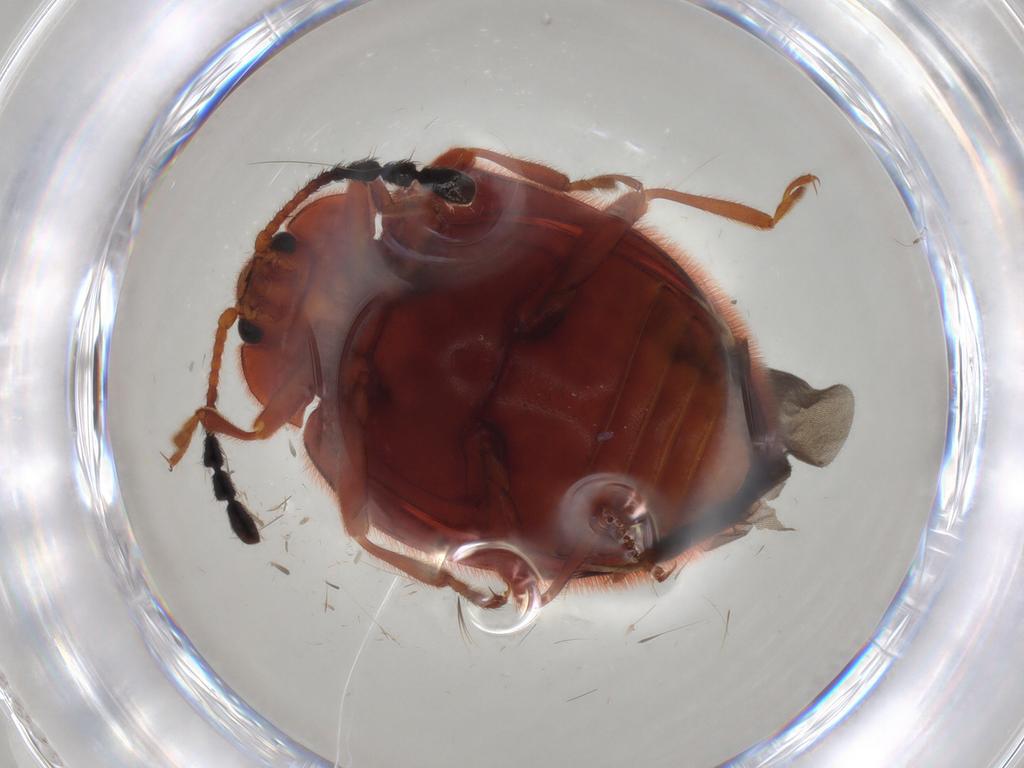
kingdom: Animalia
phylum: Arthropoda
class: Insecta
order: Coleoptera
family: Endomychidae
